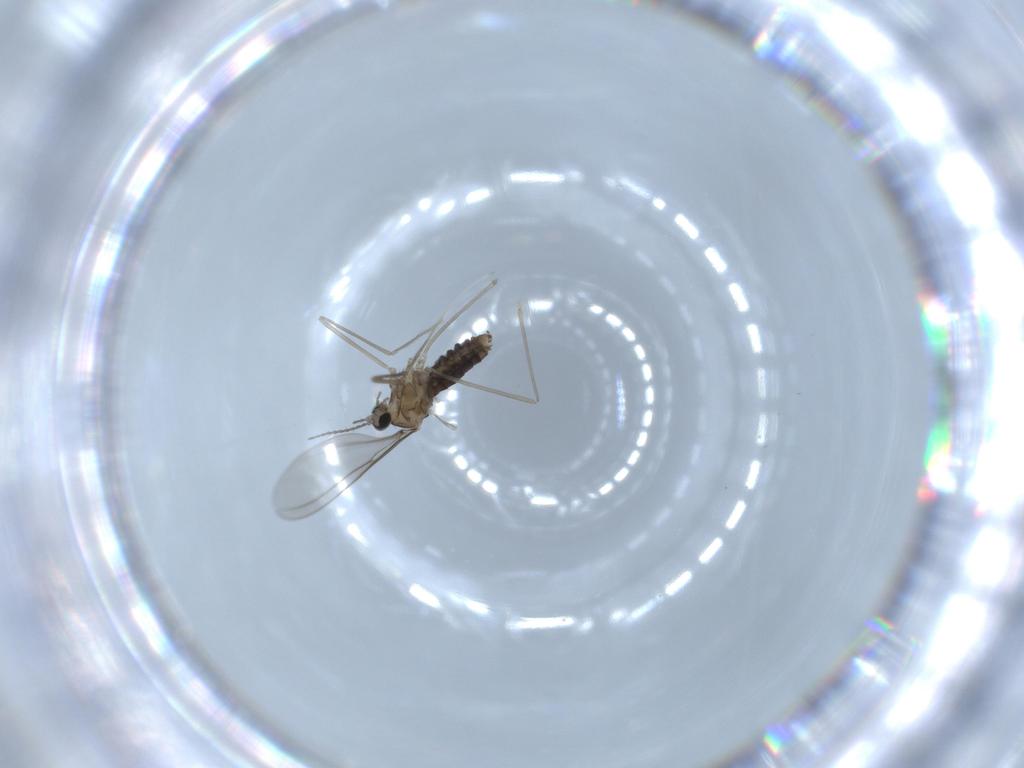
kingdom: Animalia
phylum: Arthropoda
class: Insecta
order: Diptera
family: Cecidomyiidae
